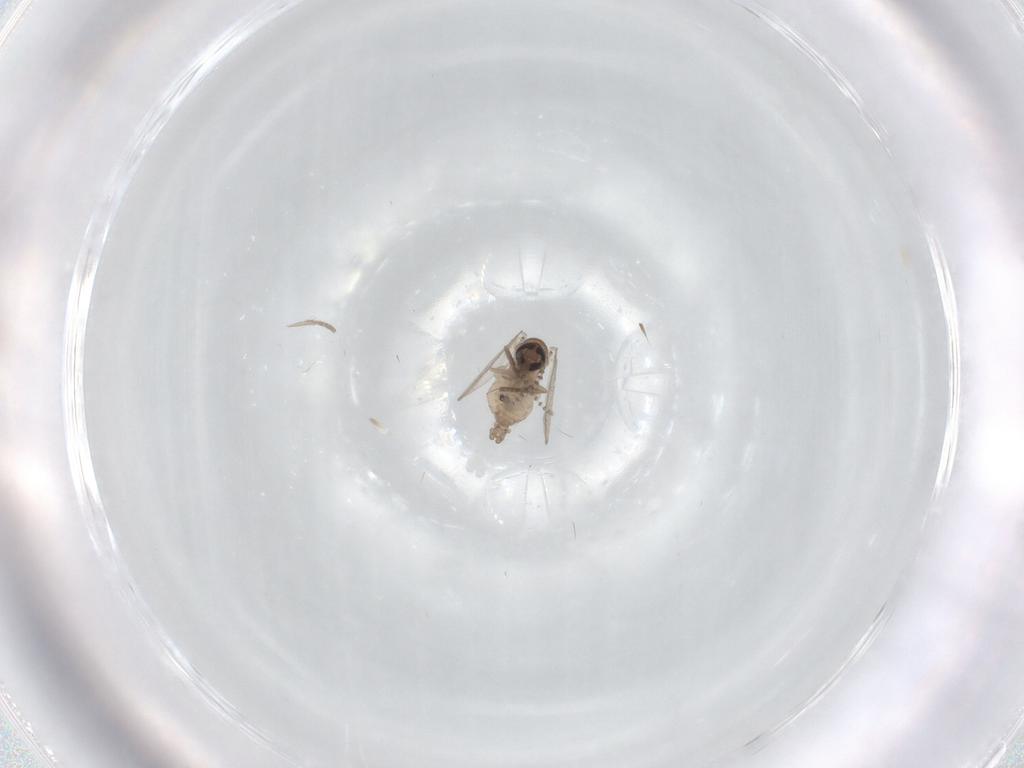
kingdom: Animalia
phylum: Arthropoda
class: Insecta
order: Diptera
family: Psychodidae
